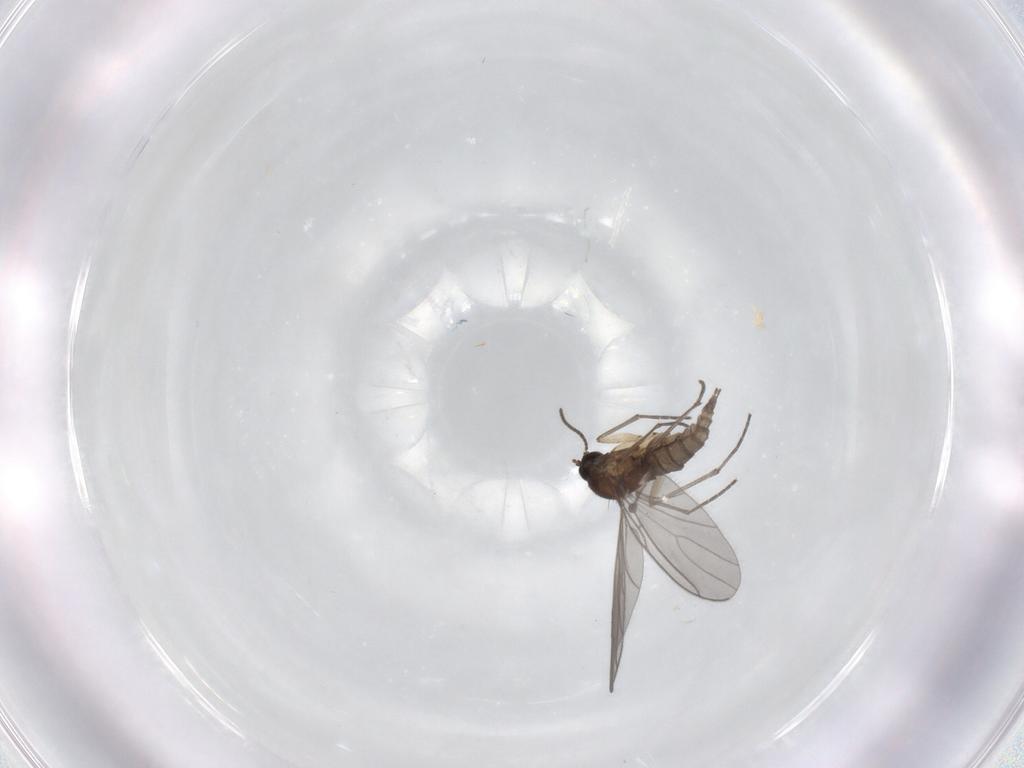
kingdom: Animalia
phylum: Arthropoda
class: Insecta
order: Diptera
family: Sciaridae
